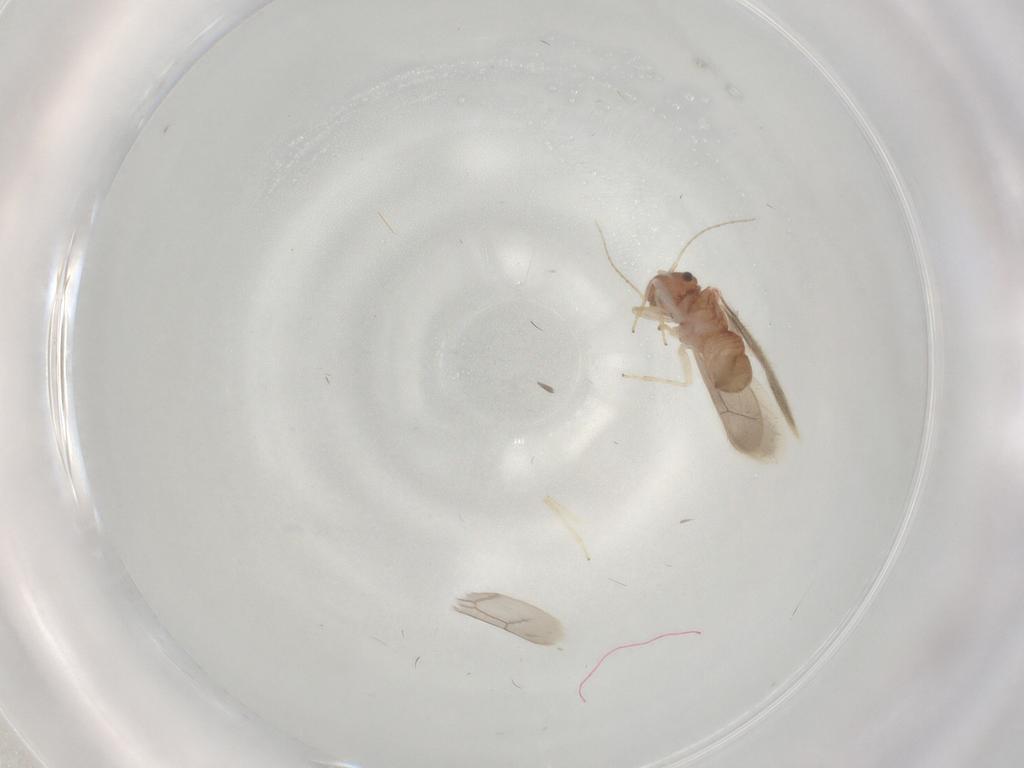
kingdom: Animalia
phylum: Arthropoda
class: Insecta
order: Psocodea
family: Archipsocidae
